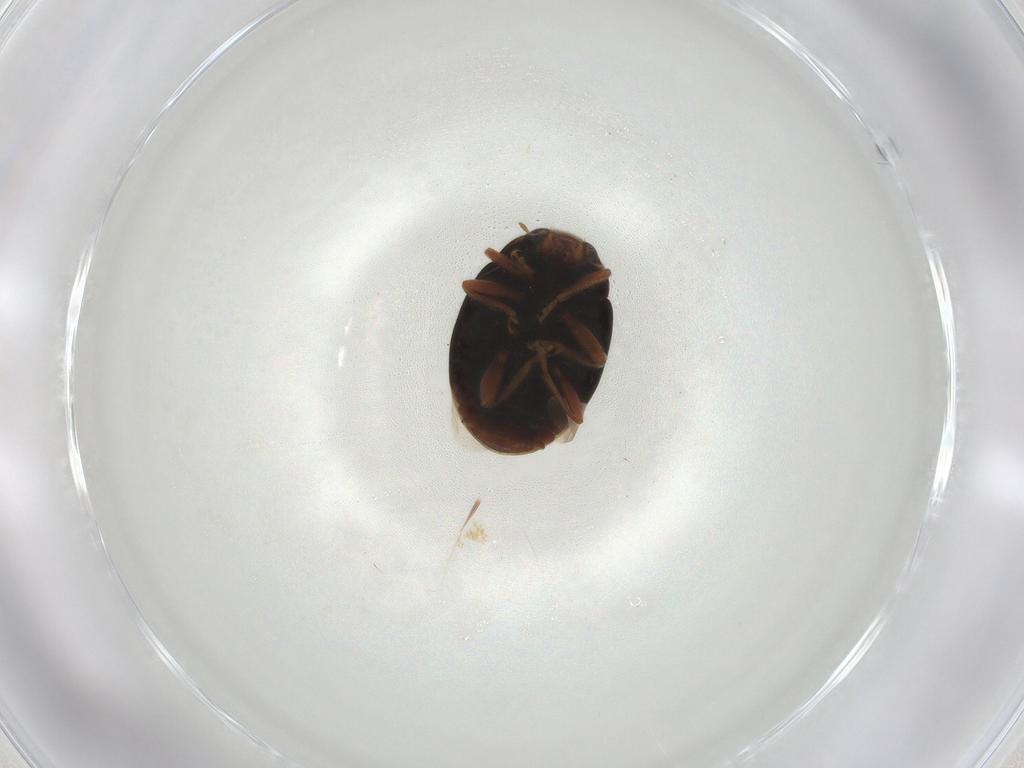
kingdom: Animalia
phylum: Arthropoda
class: Insecta
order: Coleoptera
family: Coccinellidae
